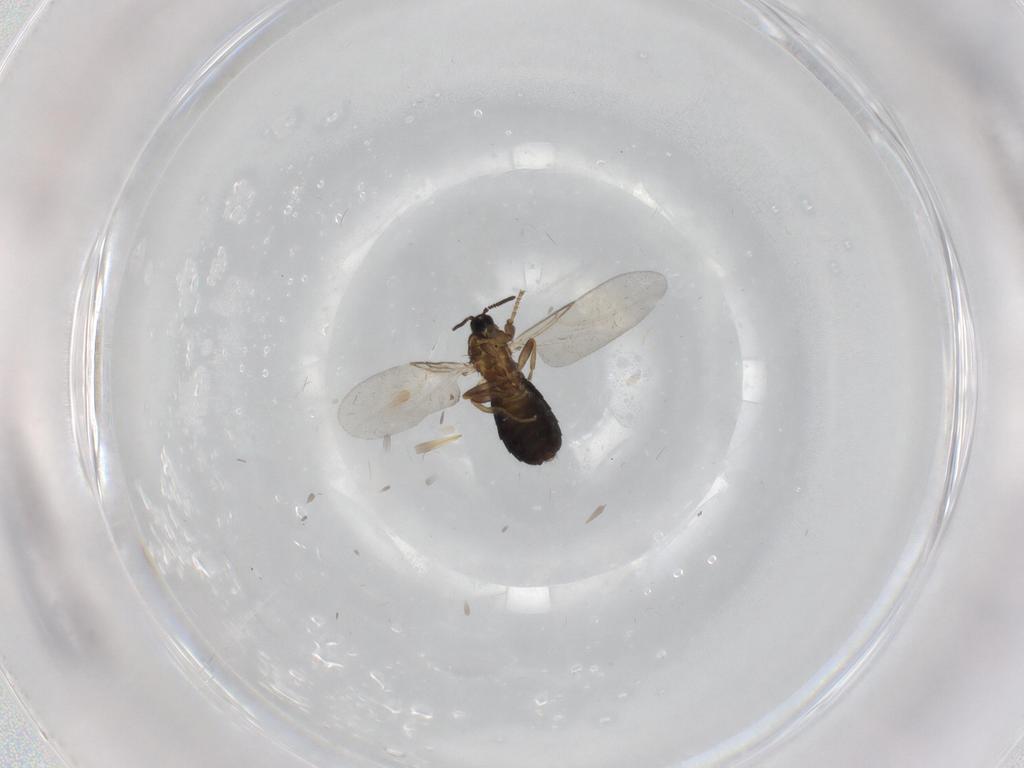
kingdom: Animalia
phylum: Arthropoda
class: Insecta
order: Diptera
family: Scatopsidae
